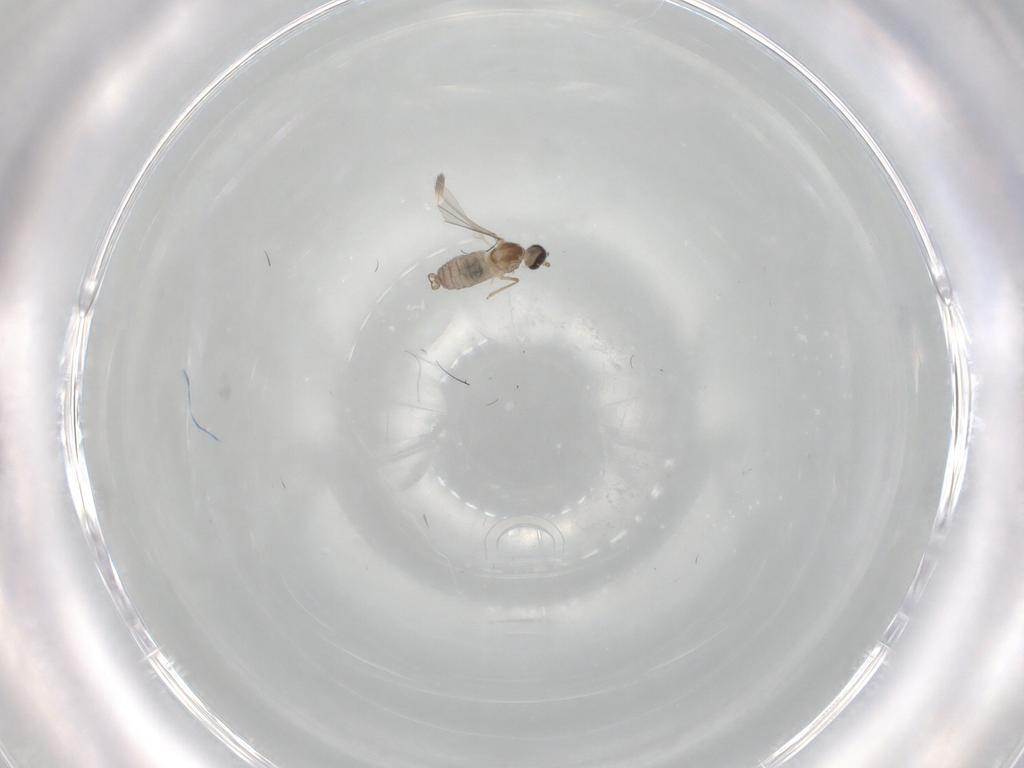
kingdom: Animalia
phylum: Arthropoda
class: Insecta
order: Diptera
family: Cecidomyiidae
